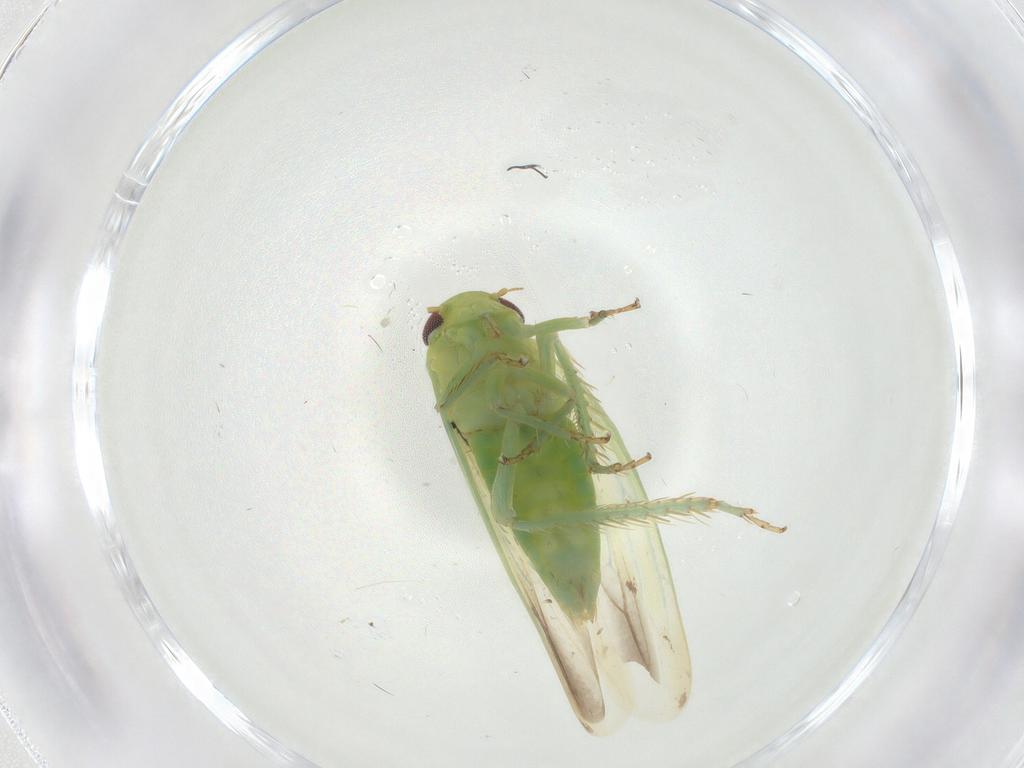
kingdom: Animalia
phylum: Arthropoda
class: Insecta
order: Hemiptera
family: Cicadellidae
